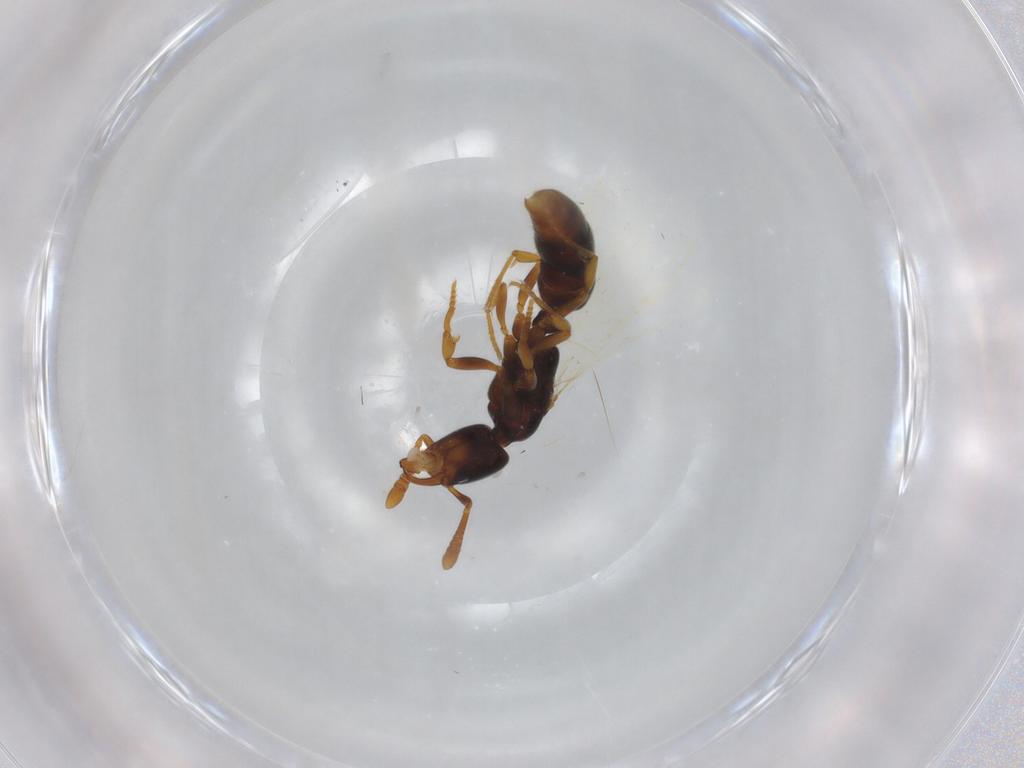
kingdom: Animalia
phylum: Arthropoda
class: Insecta
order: Hymenoptera
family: Formicidae
